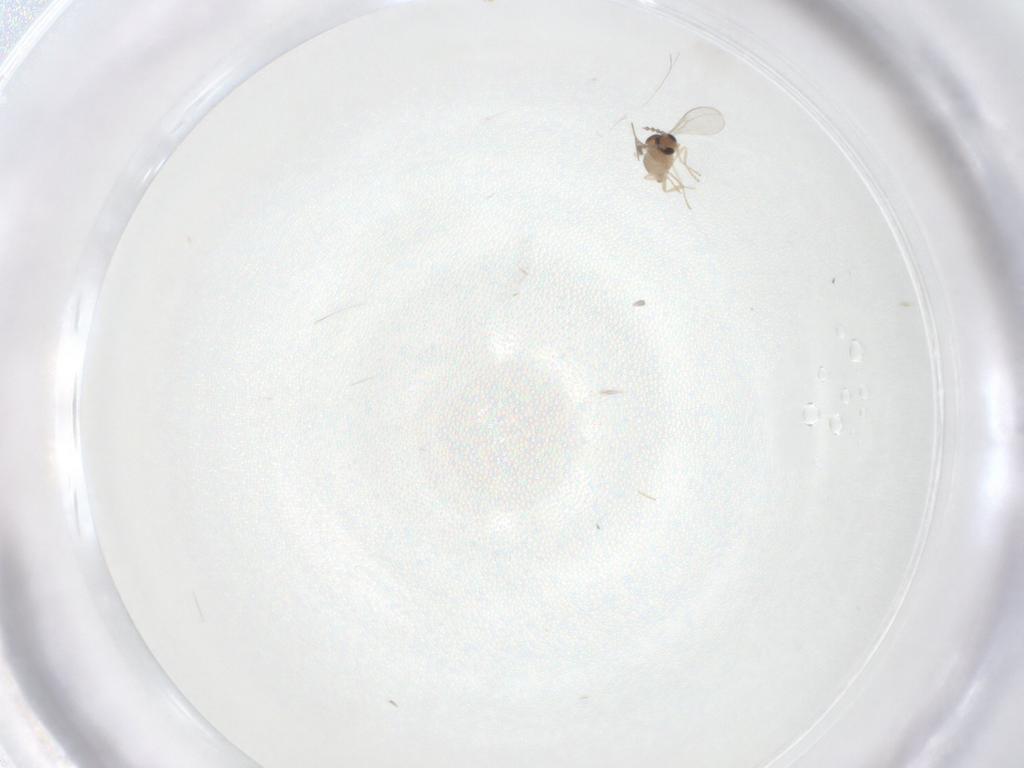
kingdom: Animalia
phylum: Arthropoda
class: Insecta
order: Diptera
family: Cecidomyiidae
